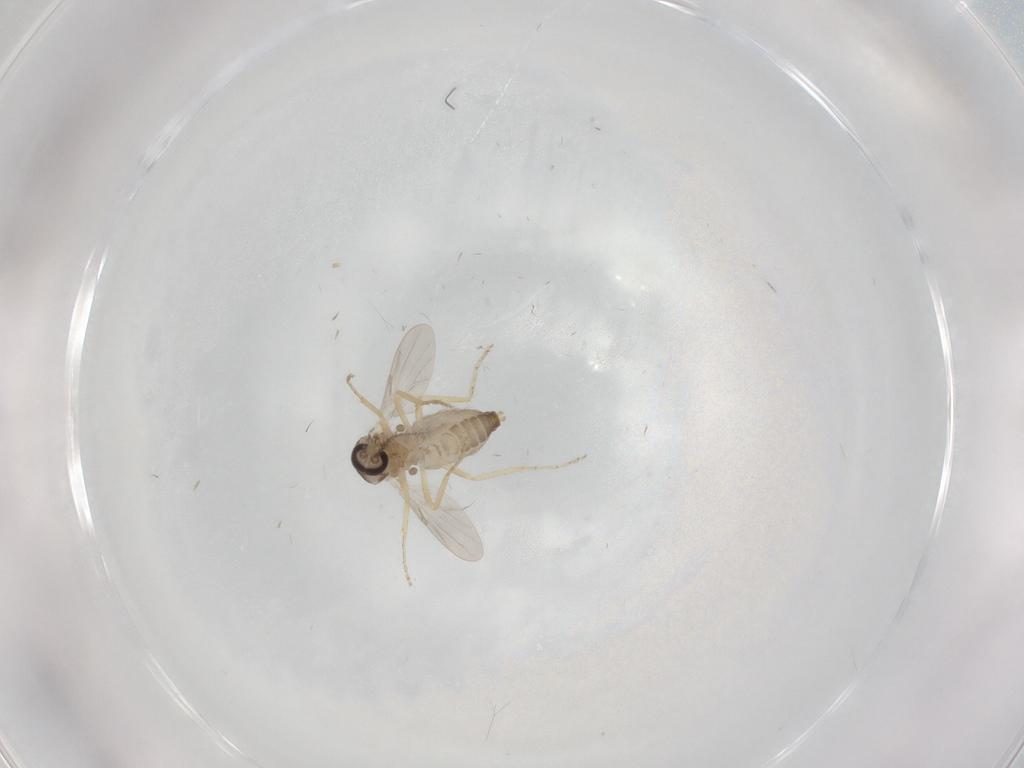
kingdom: Animalia
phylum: Arthropoda
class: Insecta
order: Diptera
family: Ceratopogonidae
